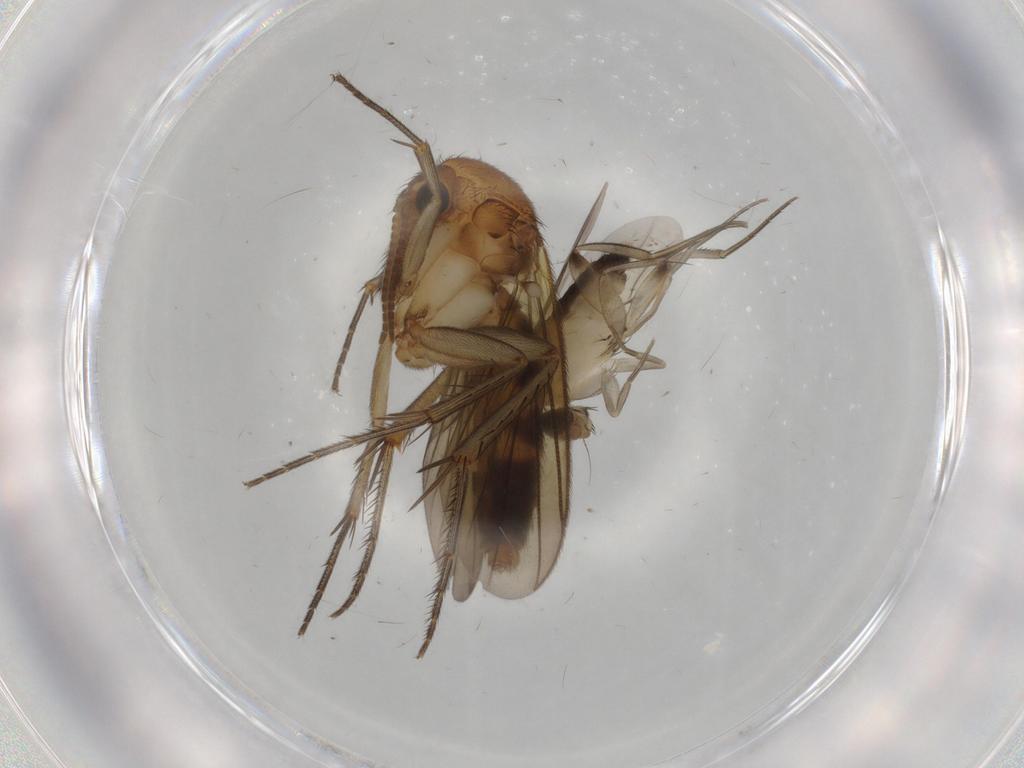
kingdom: Animalia
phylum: Arthropoda
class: Insecta
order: Diptera
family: Phoridae
